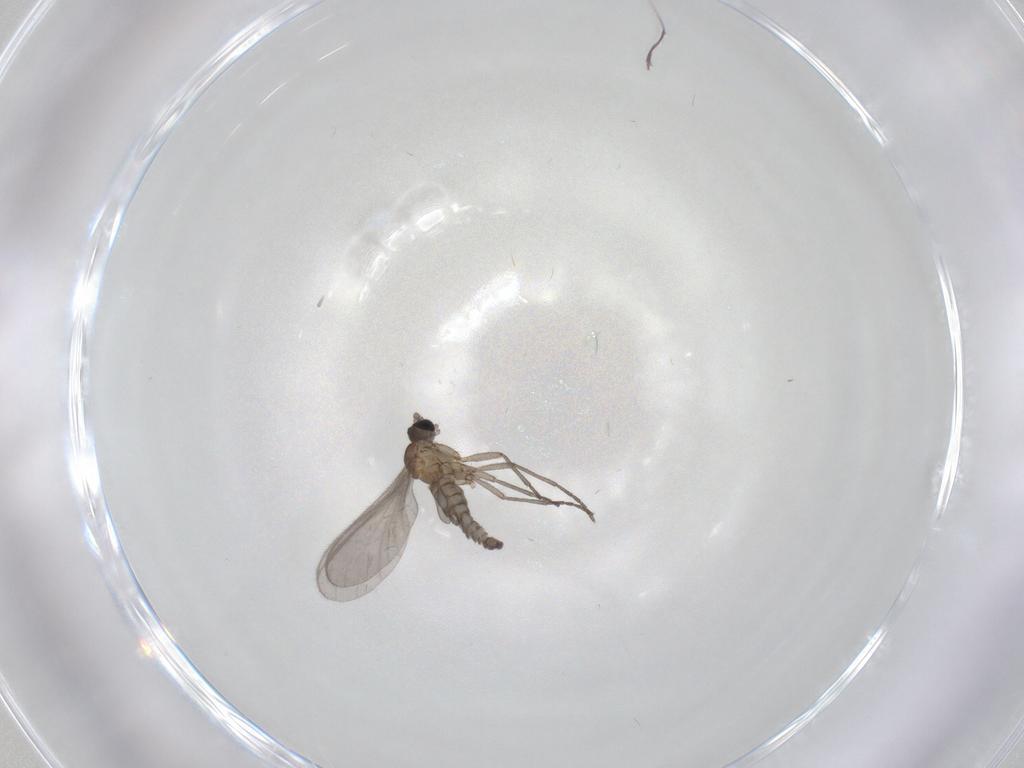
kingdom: Animalia
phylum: Arthropoda
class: Insecta
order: Diptera
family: Sciaridae
